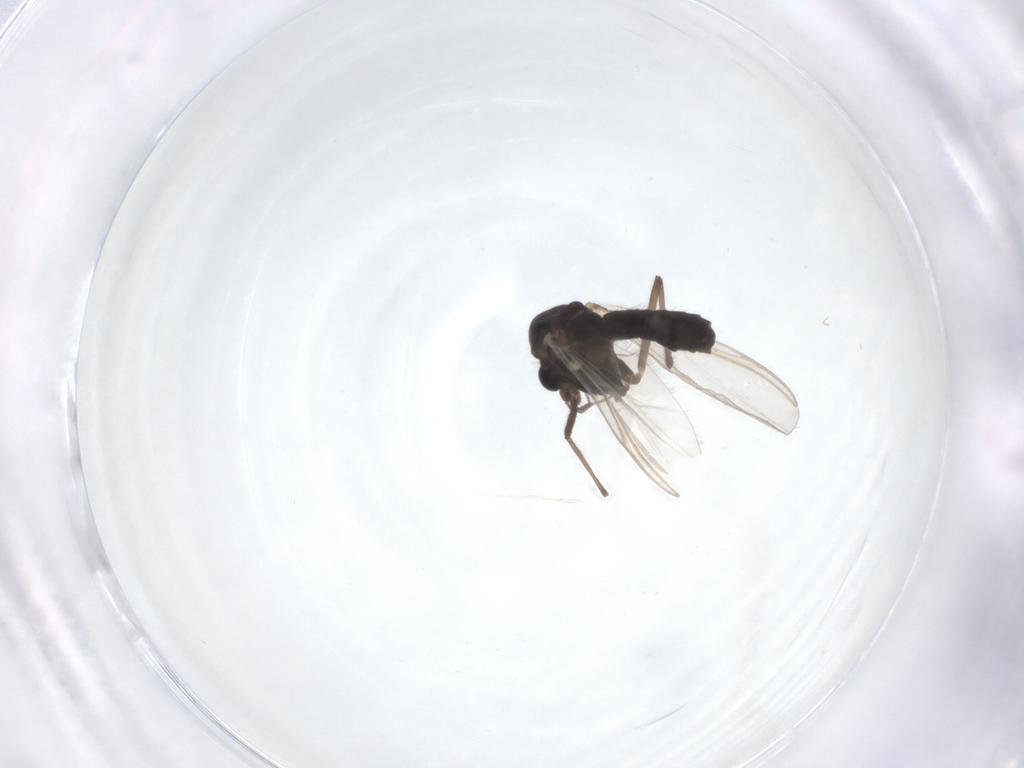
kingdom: Animalia
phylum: Arthropoda
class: Insecta
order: Diptera
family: Chironomidae
